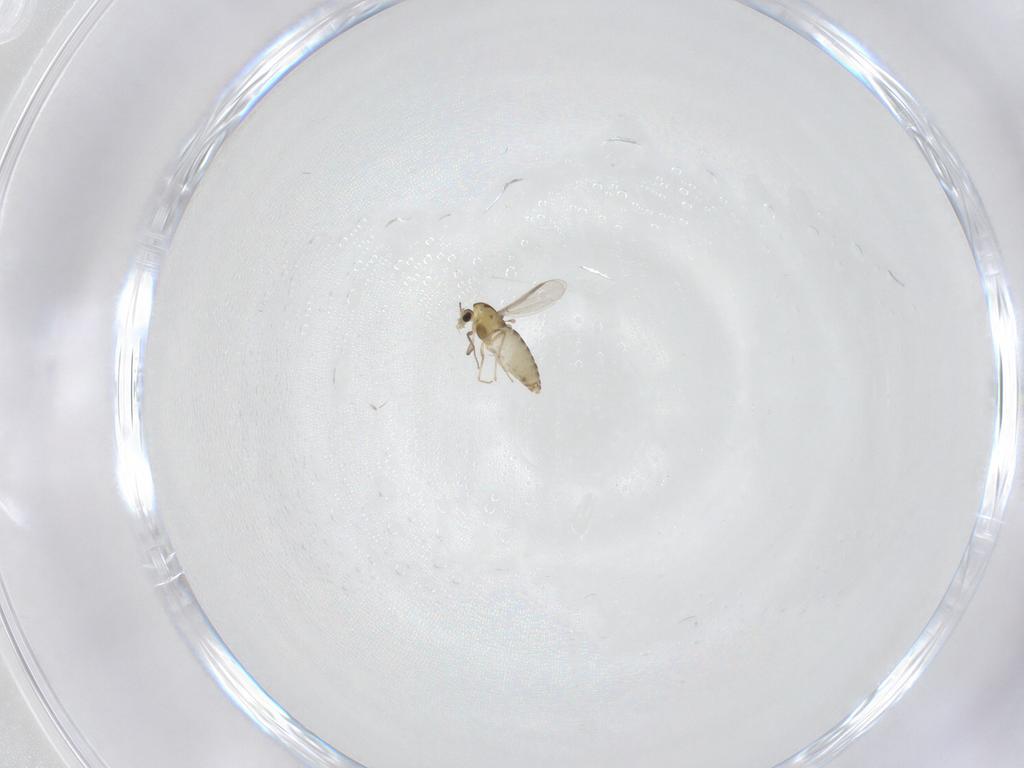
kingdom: Animalia
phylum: Arthropoda
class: Insecta
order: Diptera
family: Chironomidae
